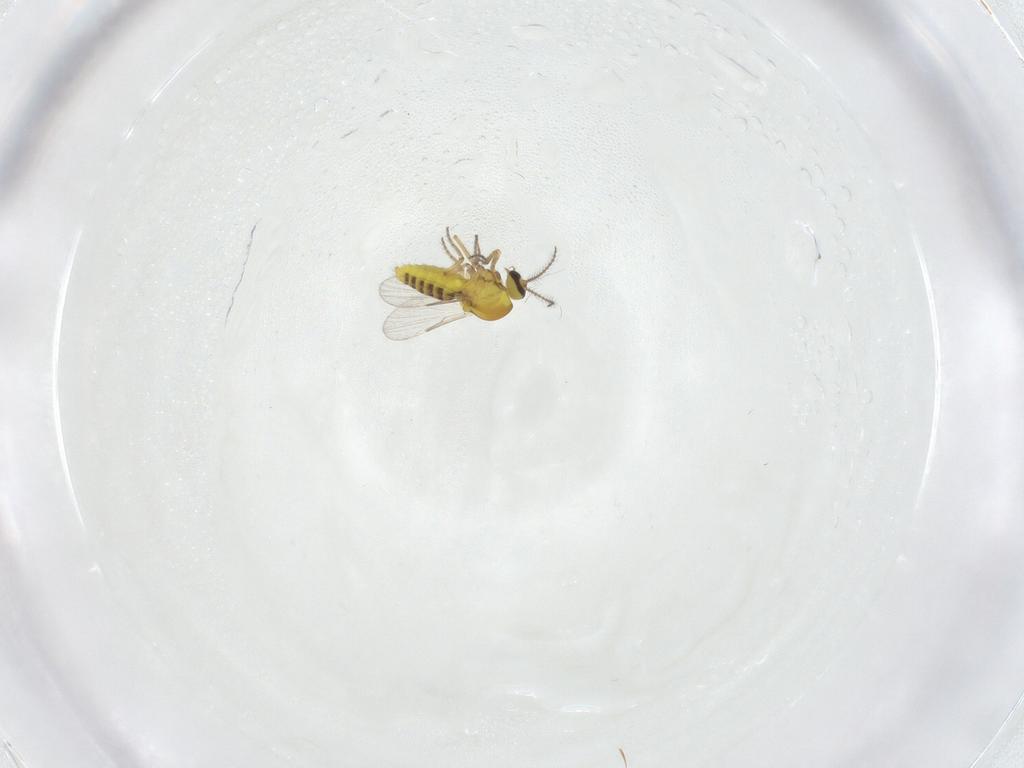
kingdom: Animalia
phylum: Arthropoda
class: Insecta
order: Diptera
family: Ceratopogonidae
